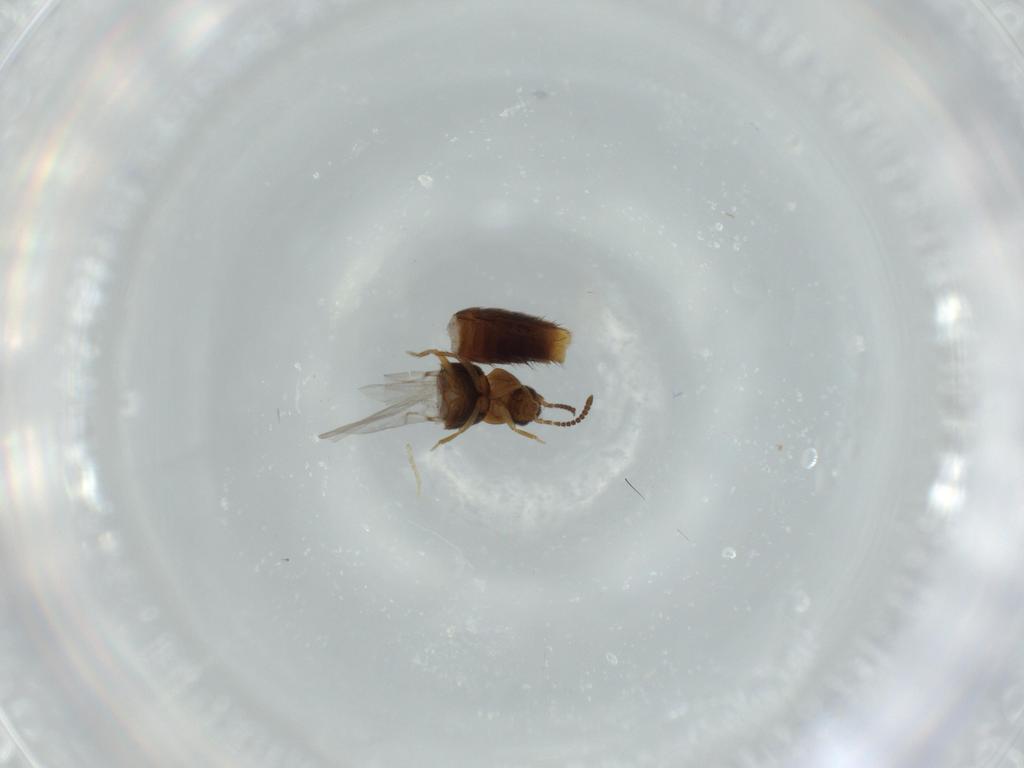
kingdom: Animalia
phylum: Arthropoda
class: Insecta
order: Coleoptera
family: Staphylinidae
